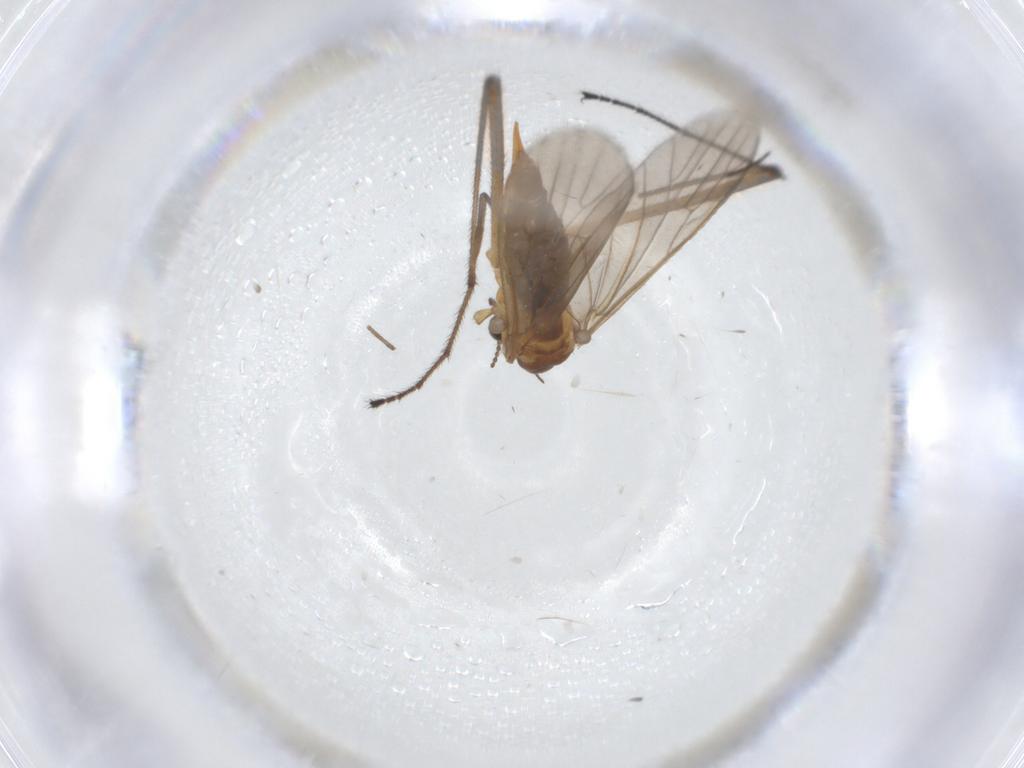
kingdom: Animalia
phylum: Arthropoda
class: Insecta
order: Diptera
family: Limoniidae
